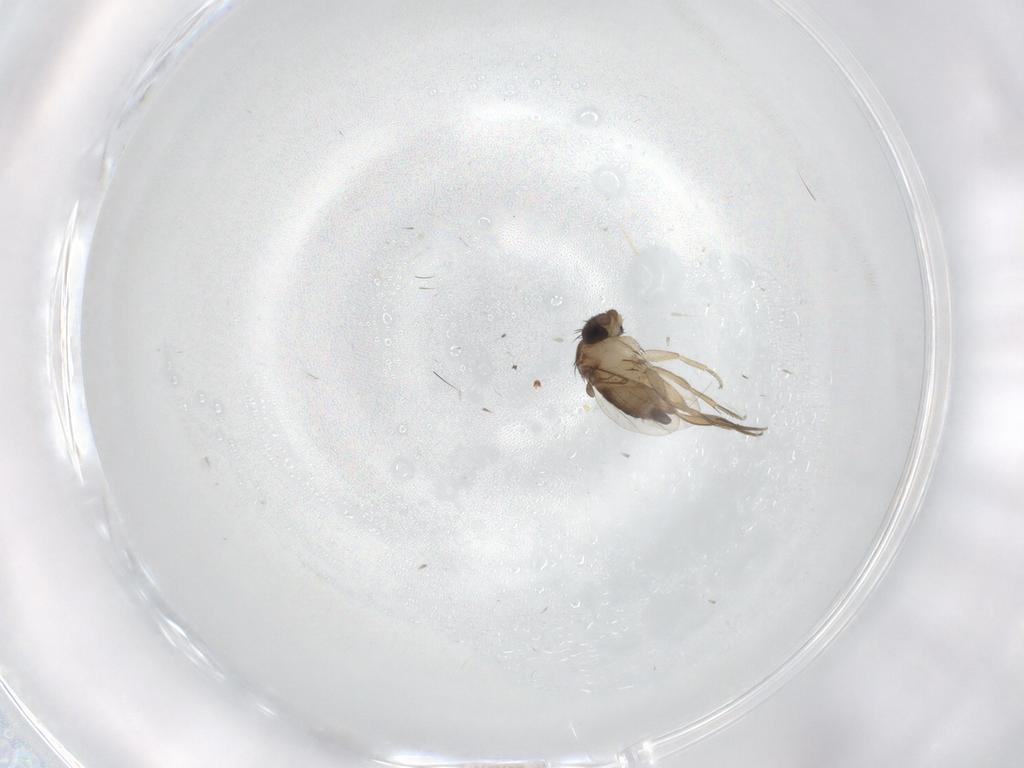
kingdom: Animalia
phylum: Arthropoda
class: Insecta
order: Diptera
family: Phoridae
